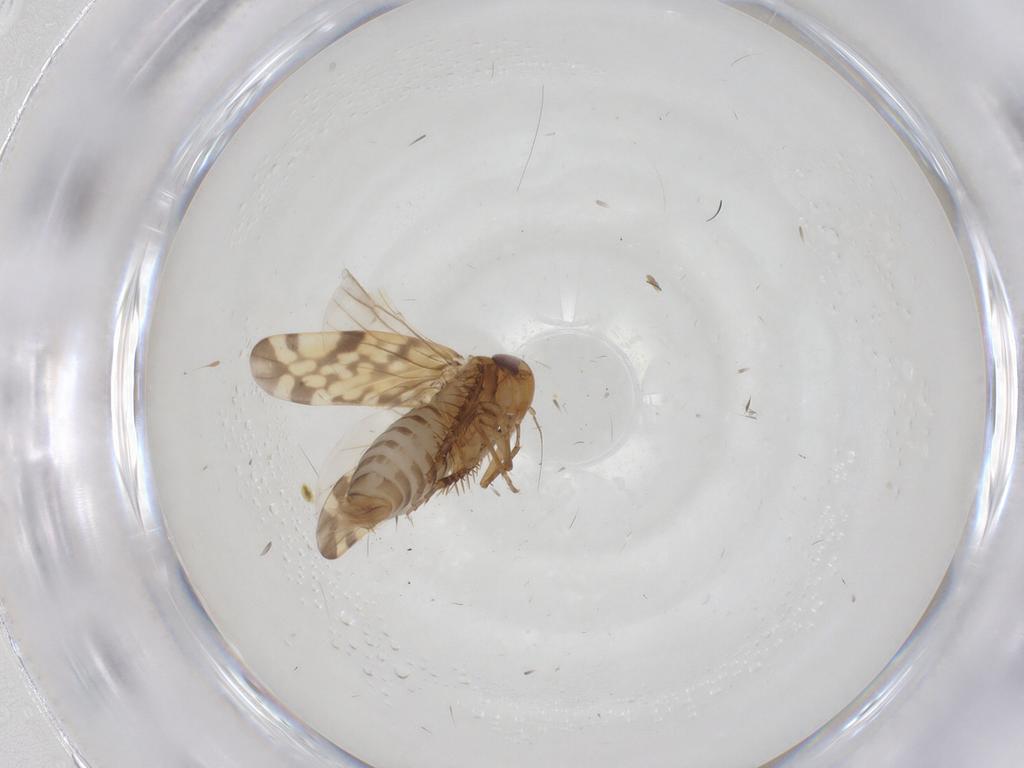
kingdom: Animalia
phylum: Arthropoda
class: Insecta
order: Hemiptera
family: Cicadellidae
